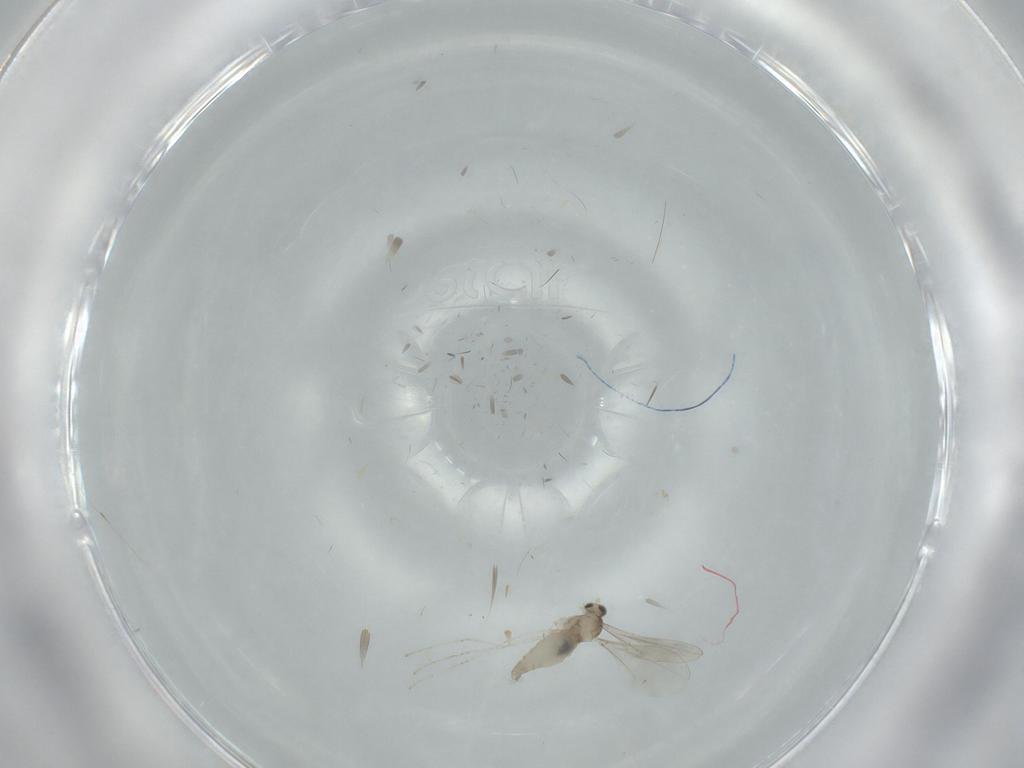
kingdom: Animalia
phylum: Arthropoda
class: Insecta
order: Diptera
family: Cecidomyiidae
